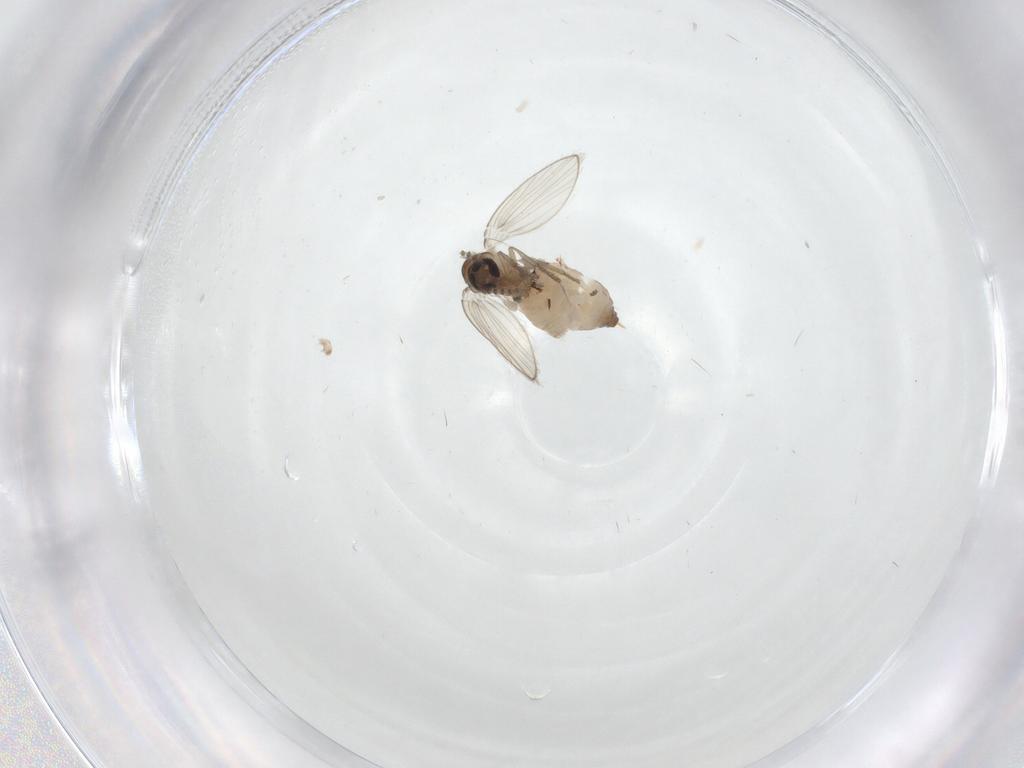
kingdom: Animalia
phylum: Arthropoda
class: Insecta
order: Diptera
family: Psychodidae
